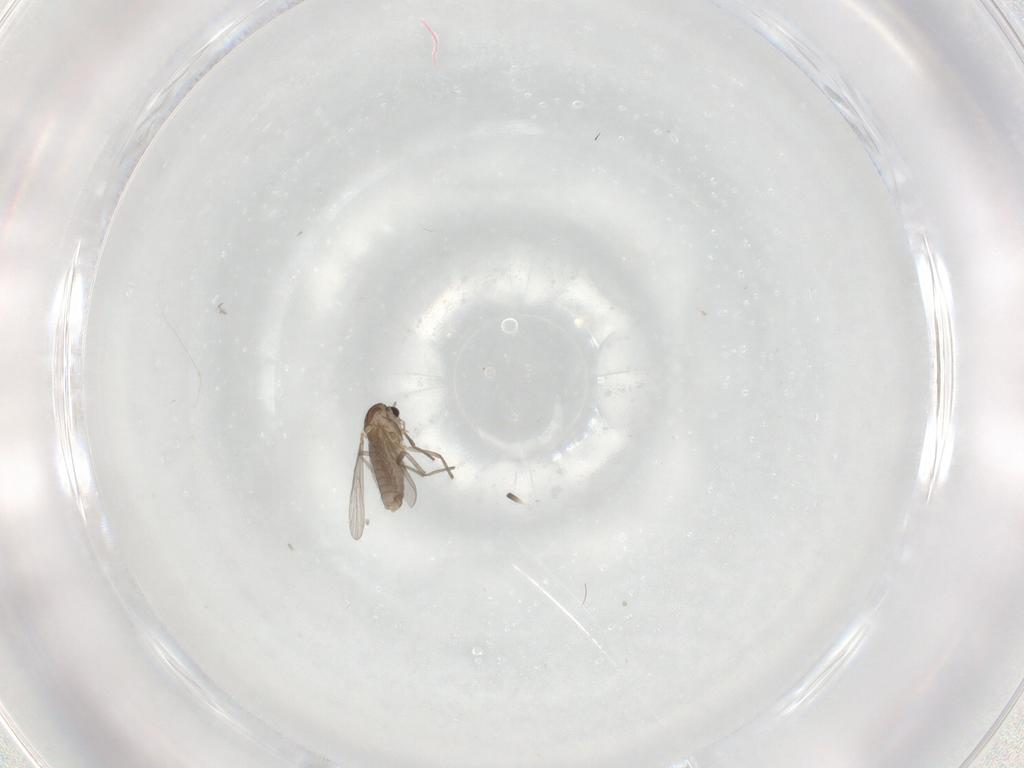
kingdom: Animalia
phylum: Arthropoda
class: Insecta
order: Diptera
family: Chironomidae
